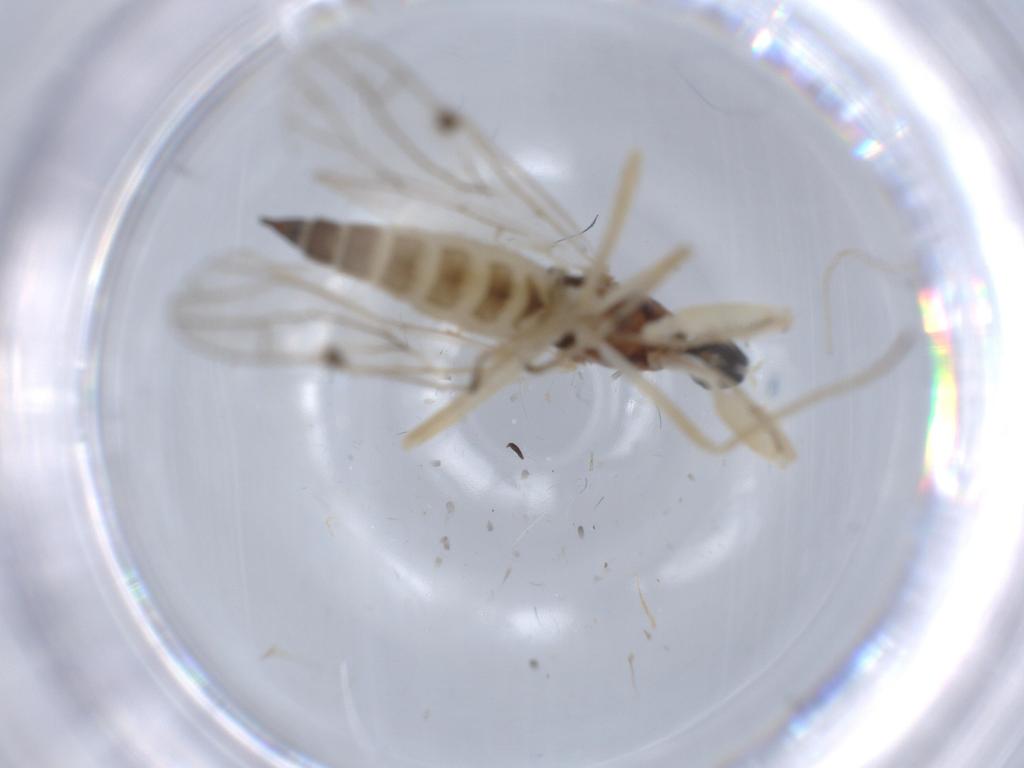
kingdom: Animalia
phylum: Arthropoda
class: Insecta
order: Diptera
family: Empididae
